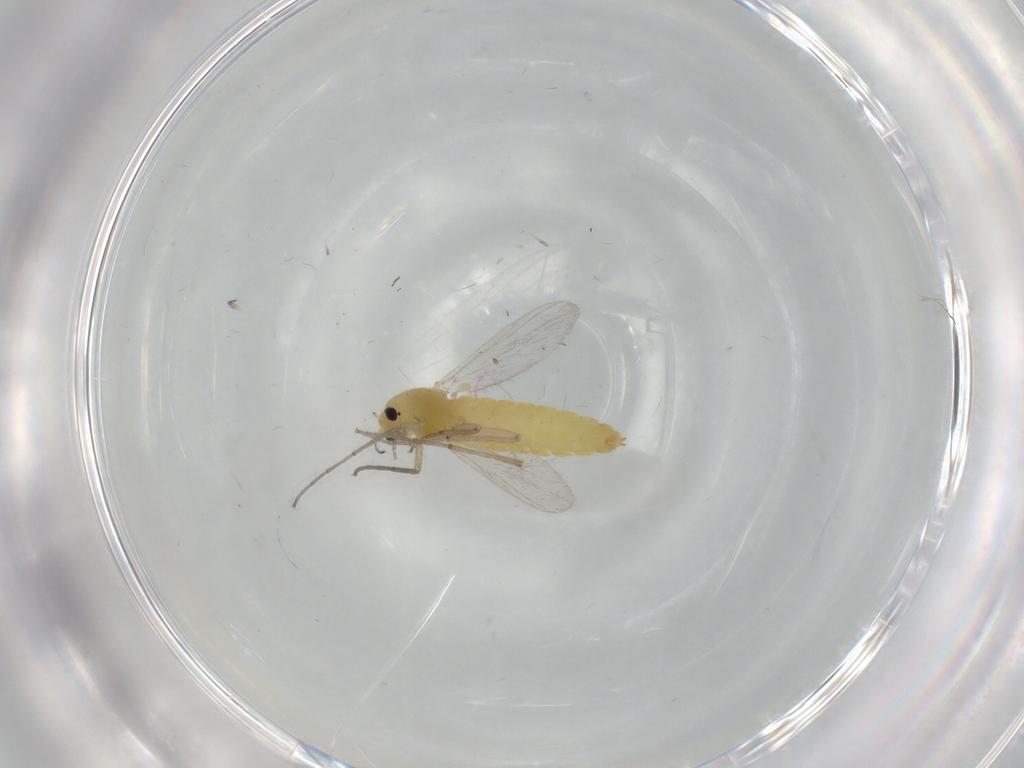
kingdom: Animalia
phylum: Arthropoda
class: Insecta
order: Diptera
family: Chironomidae
